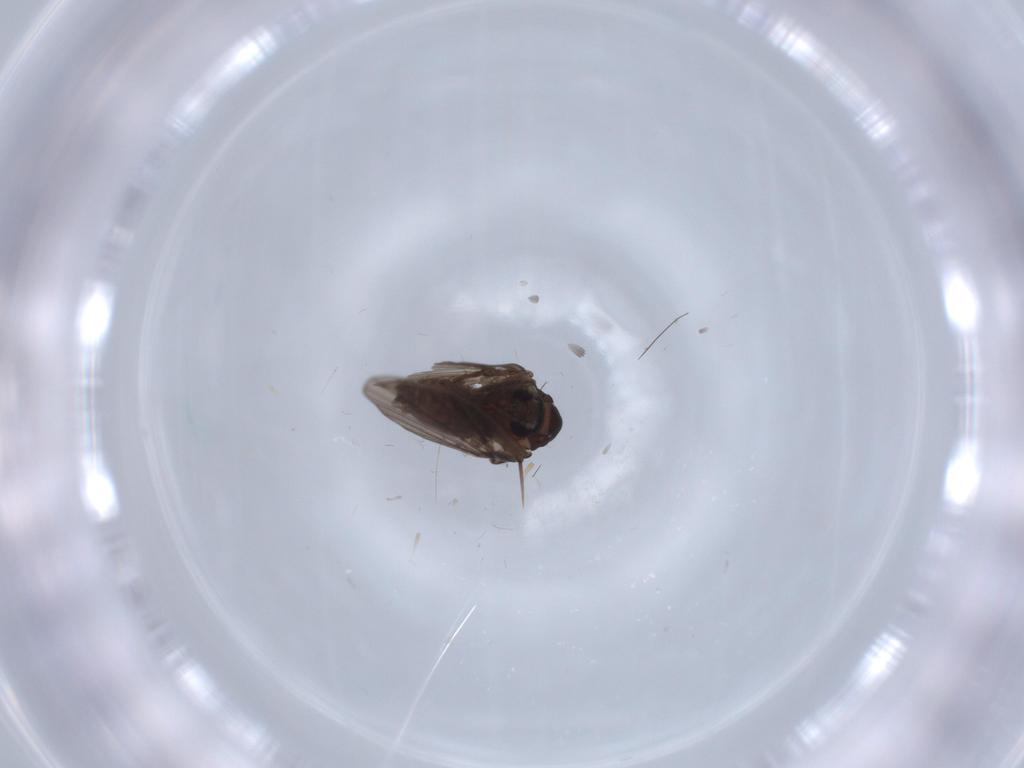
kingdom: Animalia
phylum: Arthropoda
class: Insecta
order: Diptera
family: Psychodidae
